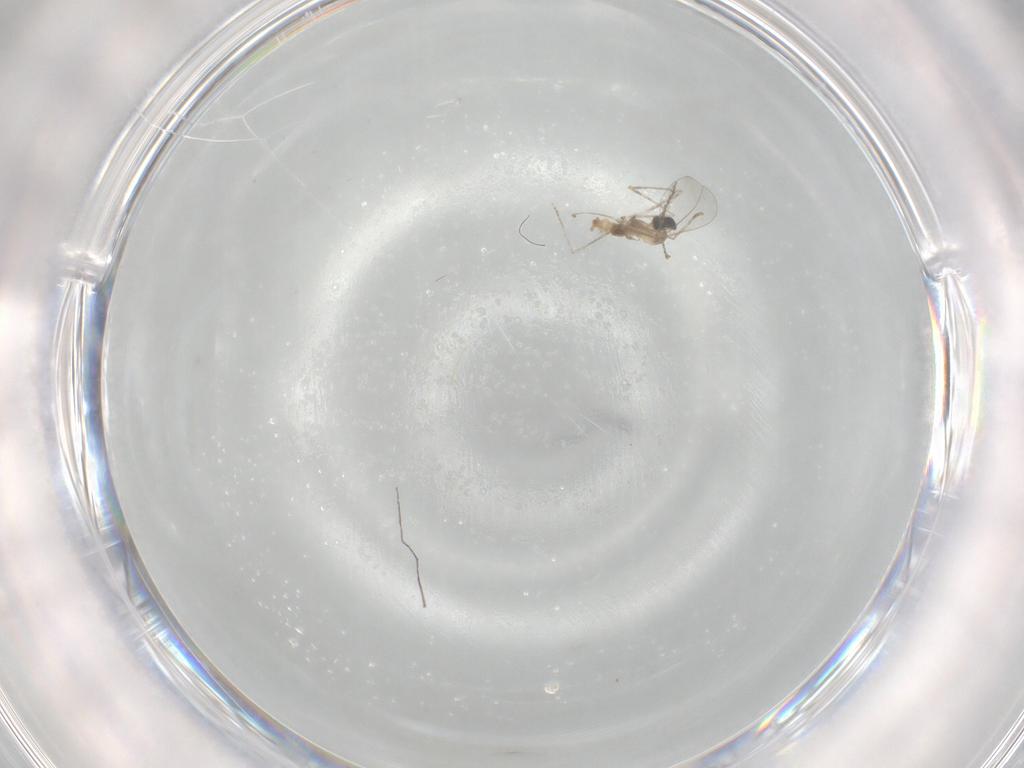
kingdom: Animalia
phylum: Arthropoda
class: Insecta
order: Diptera
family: Cecidomyiidae
